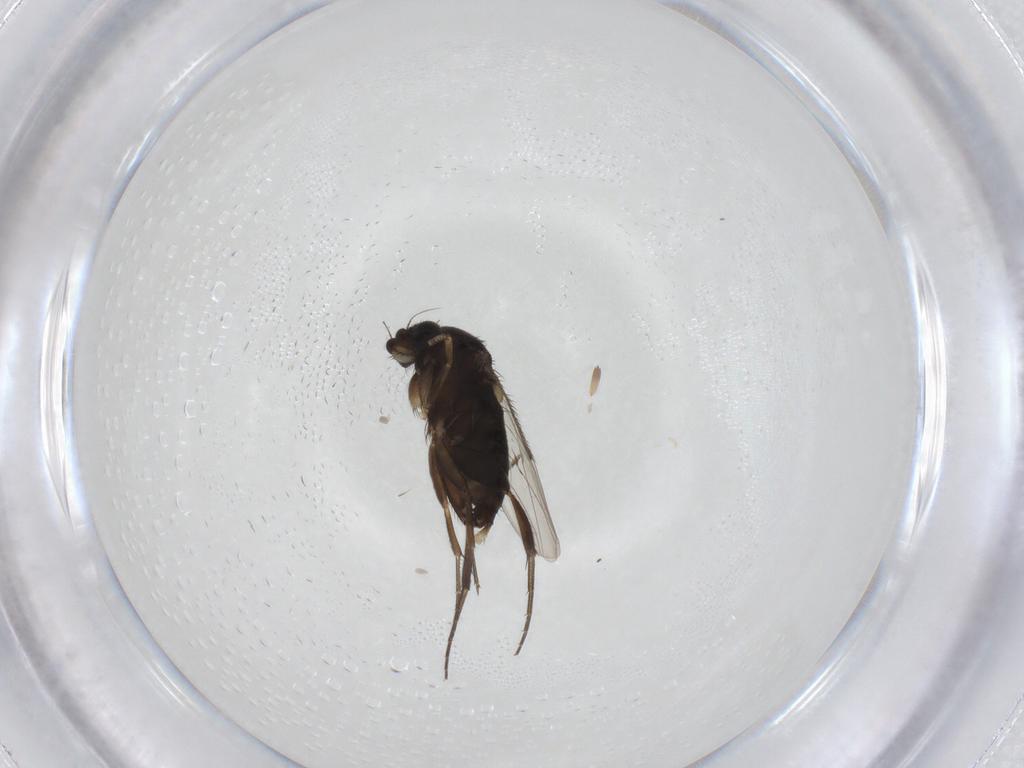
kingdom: Animalia
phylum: Arthropoda
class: Insecta
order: Diptera
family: Phoridae
